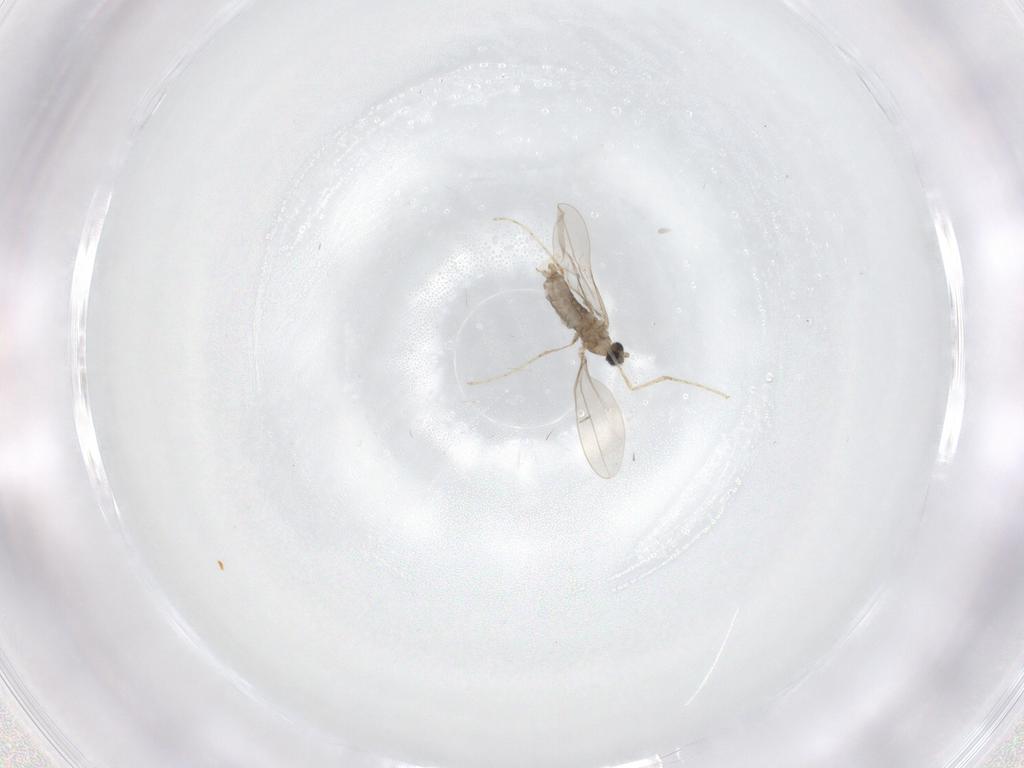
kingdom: Animalia
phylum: Arthropoda
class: Insecta
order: Diptera
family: Cecidomyiidae
